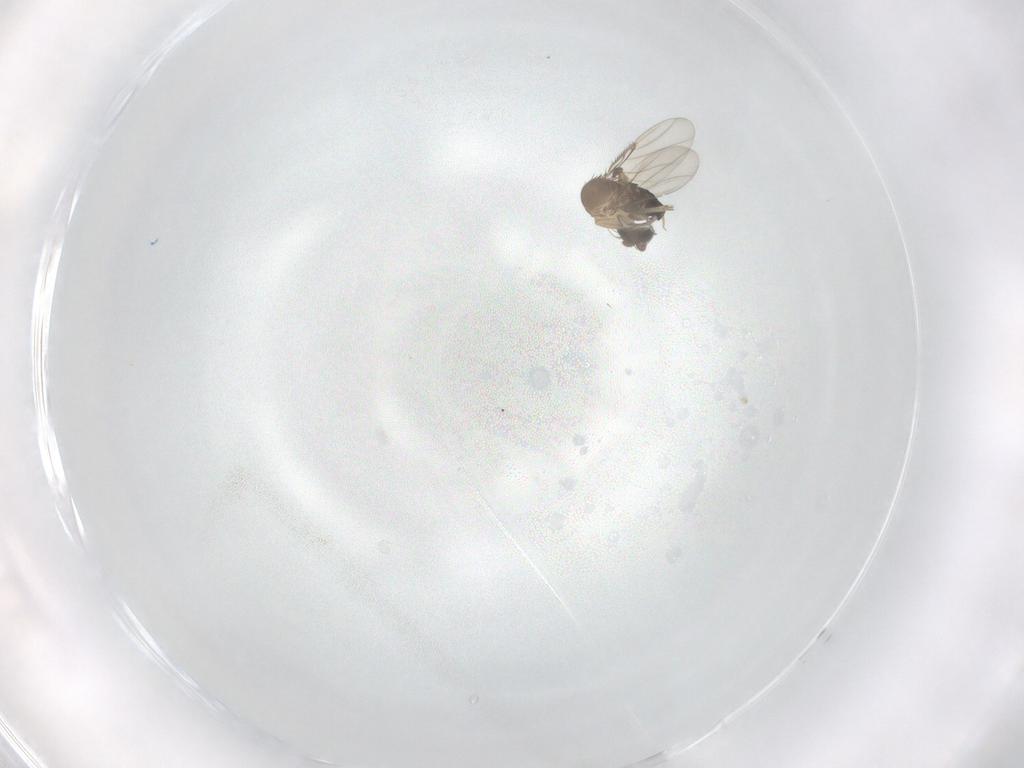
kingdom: Animalia
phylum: Arthropoda
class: Insecta
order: Diptera
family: Phoridae
